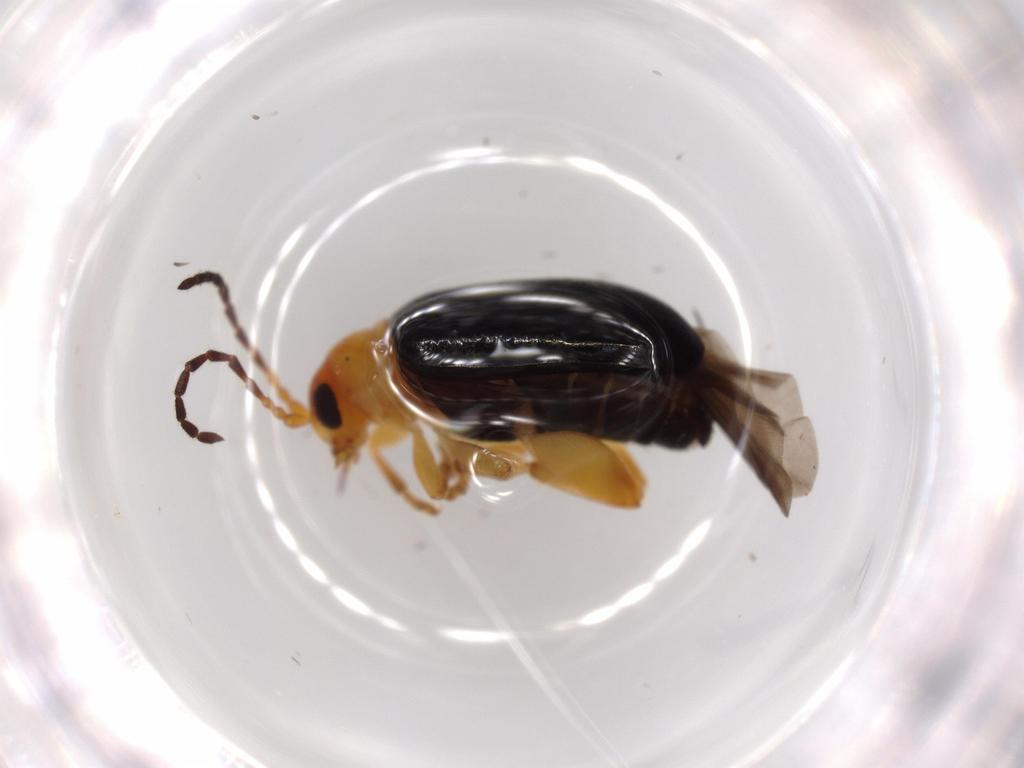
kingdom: Animalia
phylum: Arthropoda
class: Insecta
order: Coleoptera
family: Chrysomelidae
